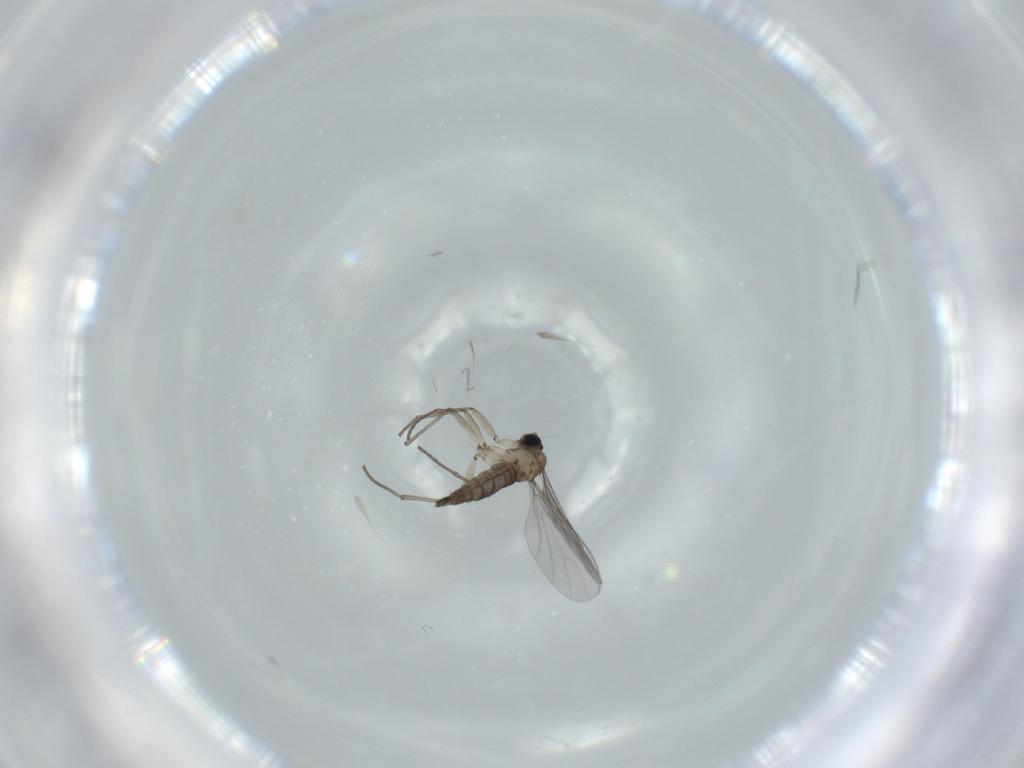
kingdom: Animalia
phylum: Arthropoda
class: Insecta
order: Diptera
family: Sciaridae
